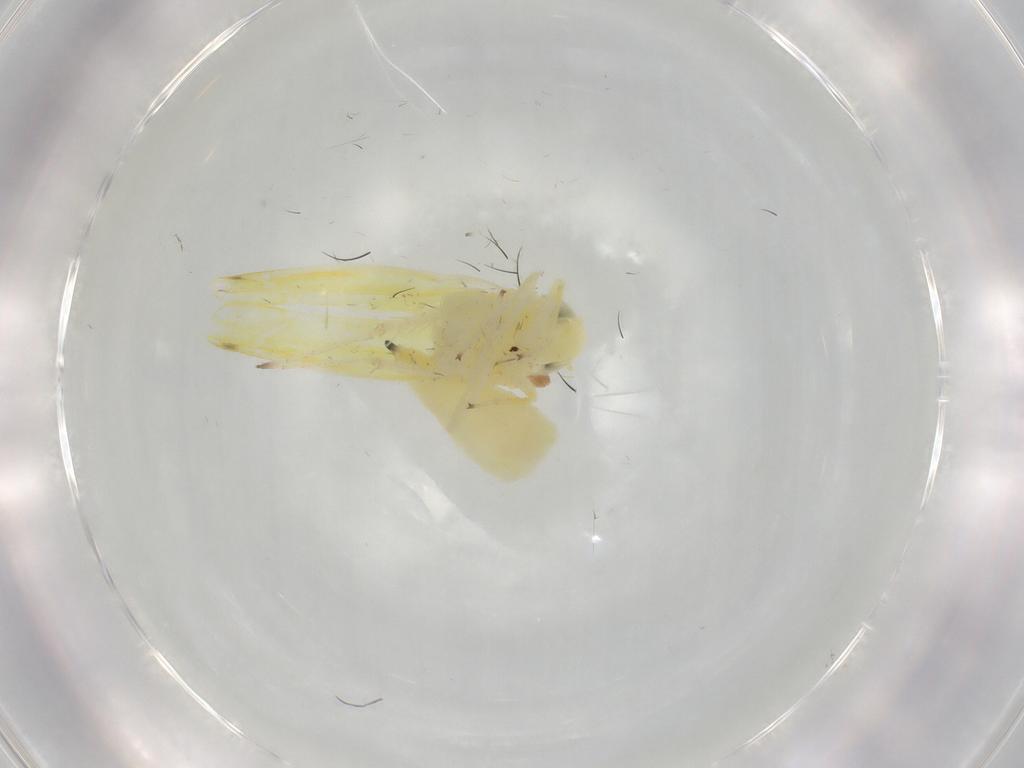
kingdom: Animalia
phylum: Arthropoda
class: Insecta
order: Hemiptera
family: Cicadellidae
